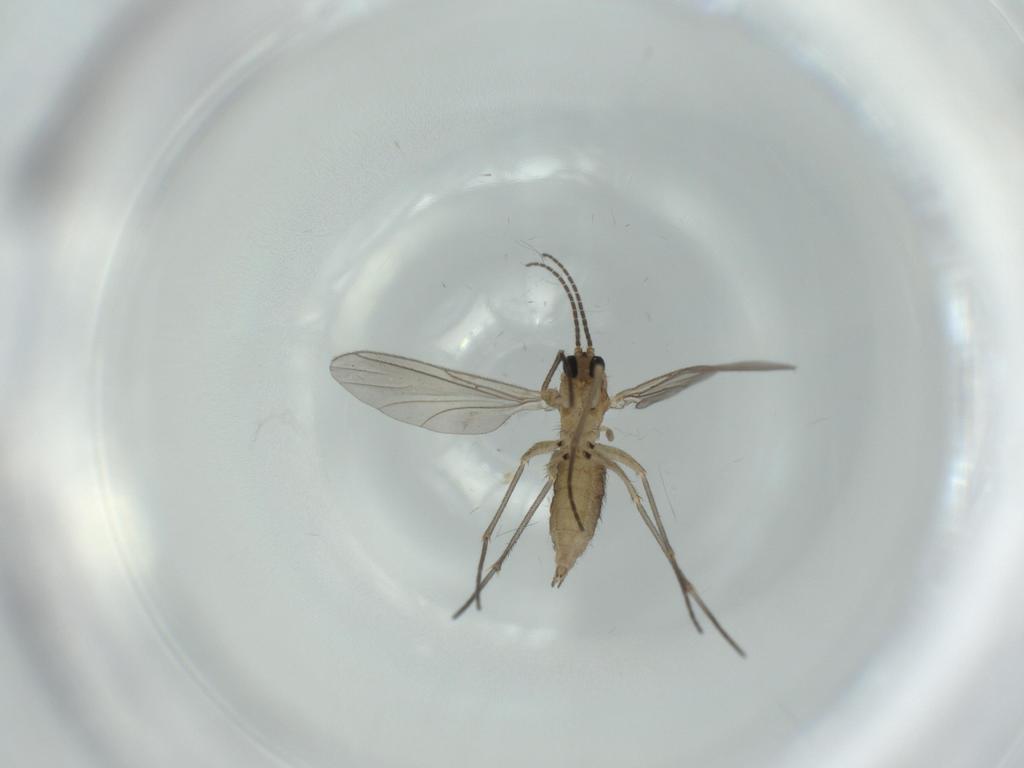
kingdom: Animalia
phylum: Arthropoda
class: Insecta
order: Diptera
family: Sciaridae
